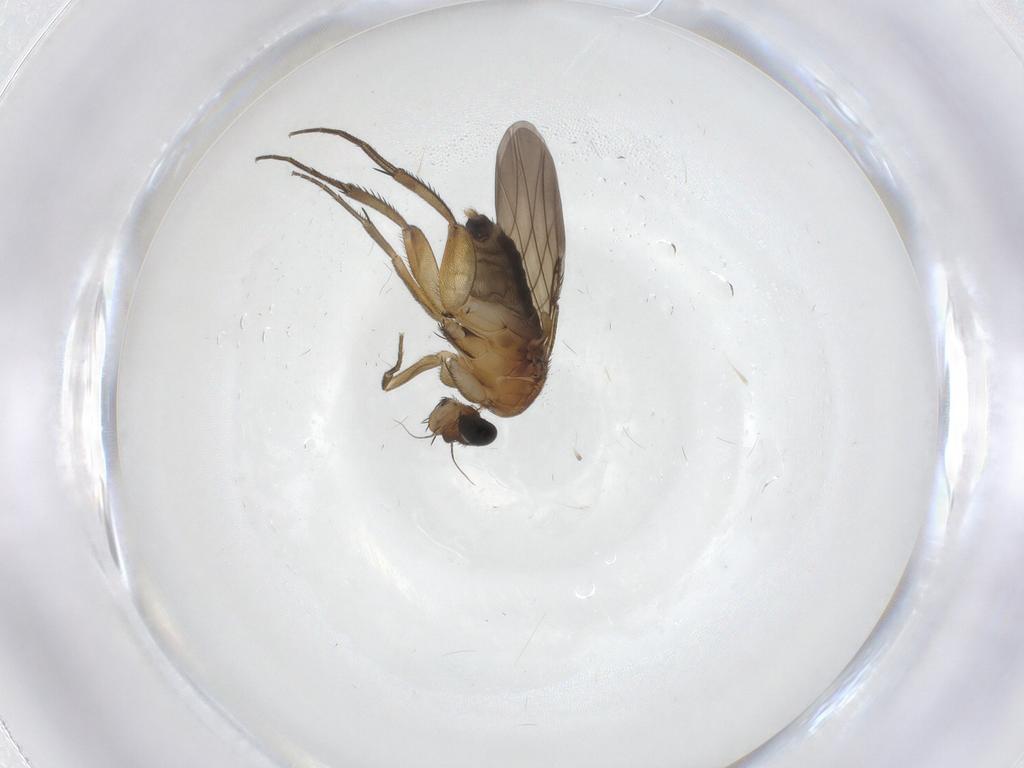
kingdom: Animalia
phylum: Arthropoda
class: Insecta
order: Diptera
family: Phoridae
